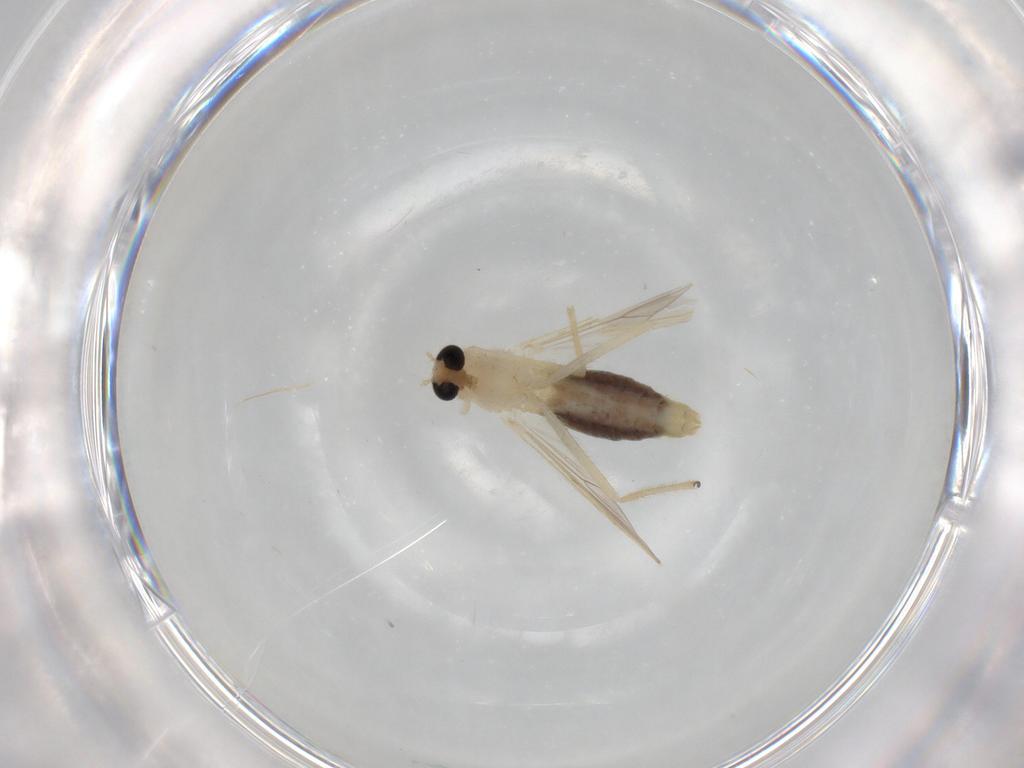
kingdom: Animalia
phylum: Arthropoda
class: Insecta
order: Diptera
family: Chironomidae
